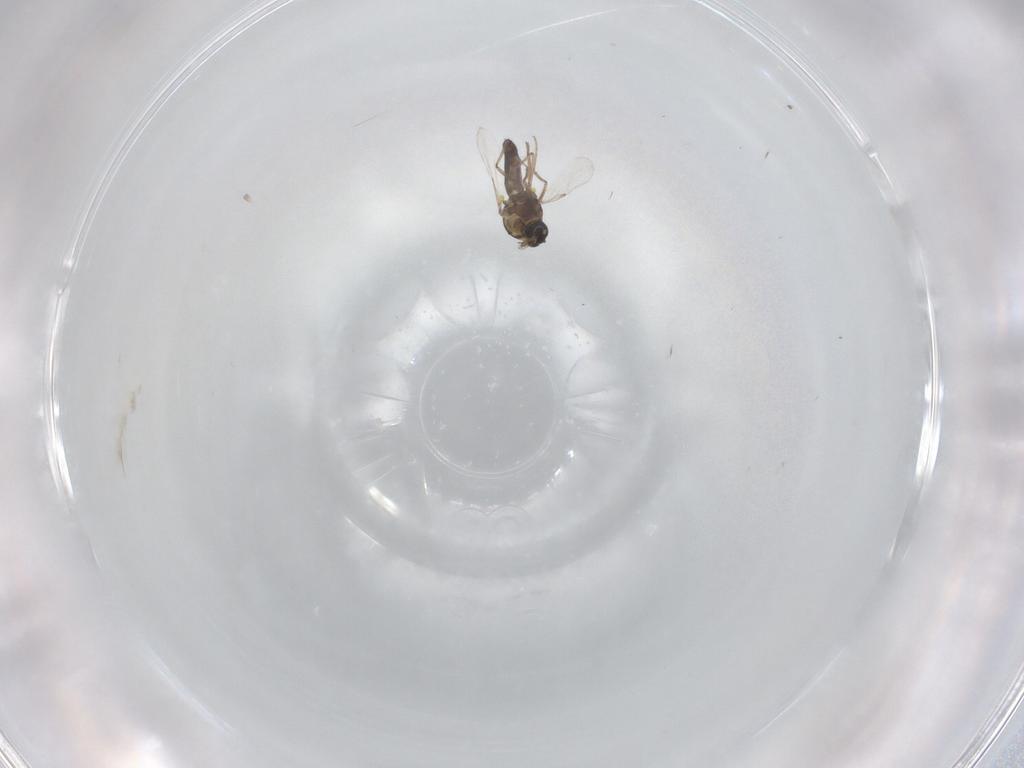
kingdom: Animalia
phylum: Arthropoda
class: Insecta
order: Diptera
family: Ceratopogonidae
